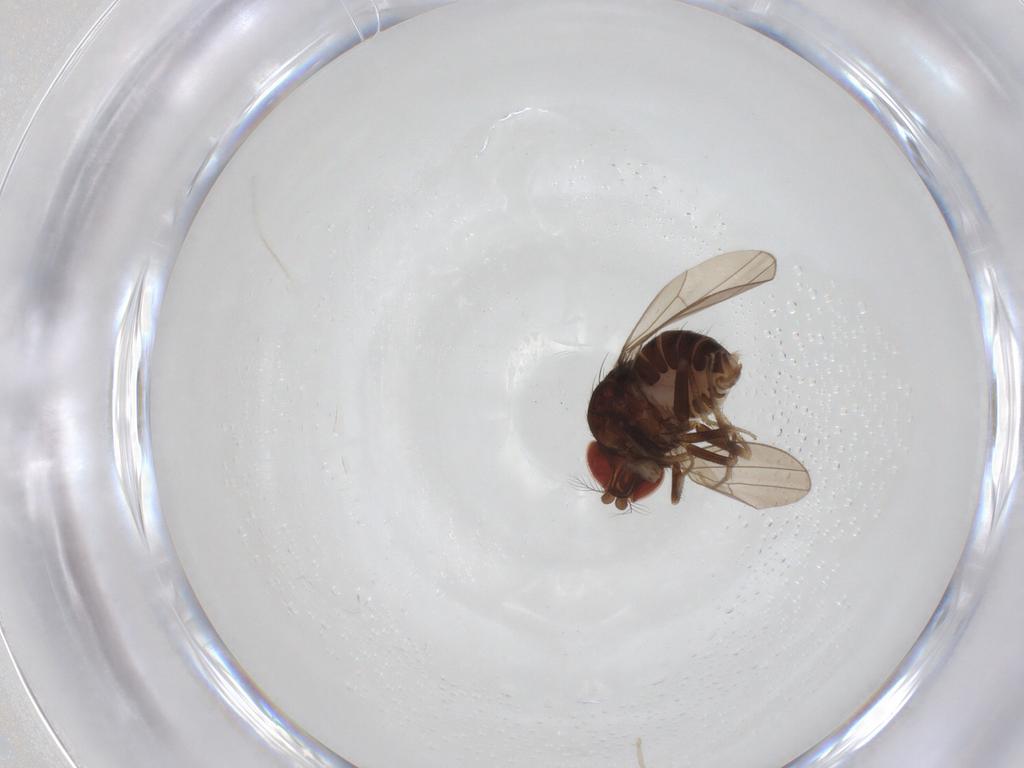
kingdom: Animalia
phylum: Arthropoda
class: Insecta
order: Diptera
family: Drosophilidae
